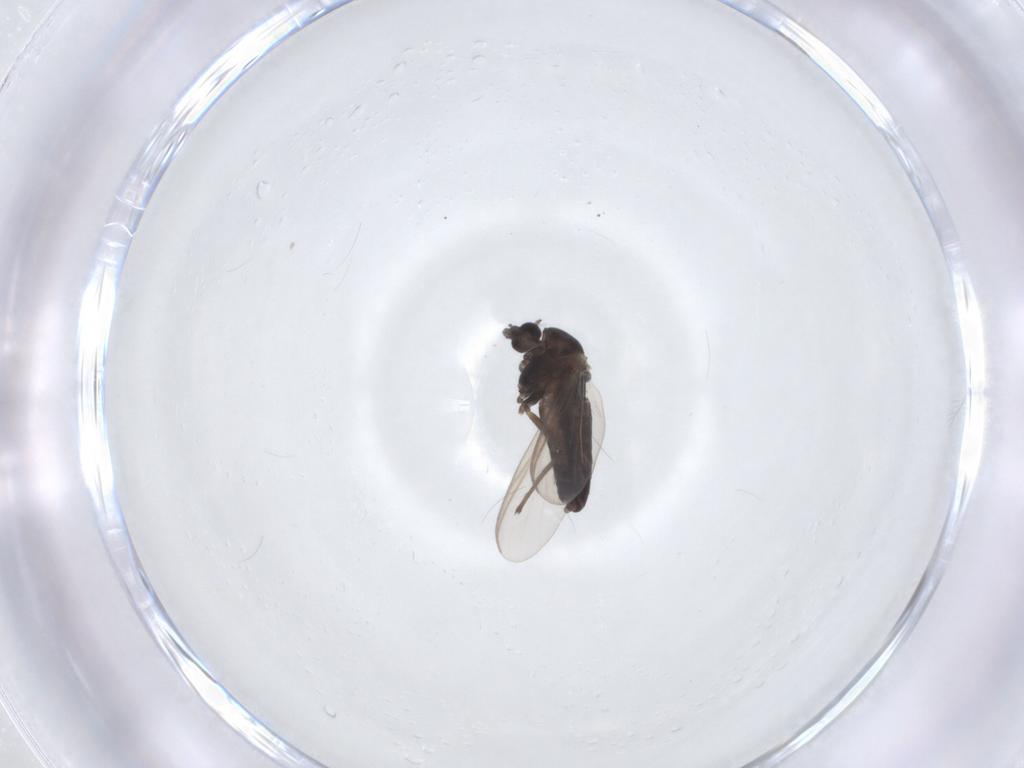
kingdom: Animalia
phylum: Arthropoda
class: Insecta
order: Diptera
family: Chironomidae
